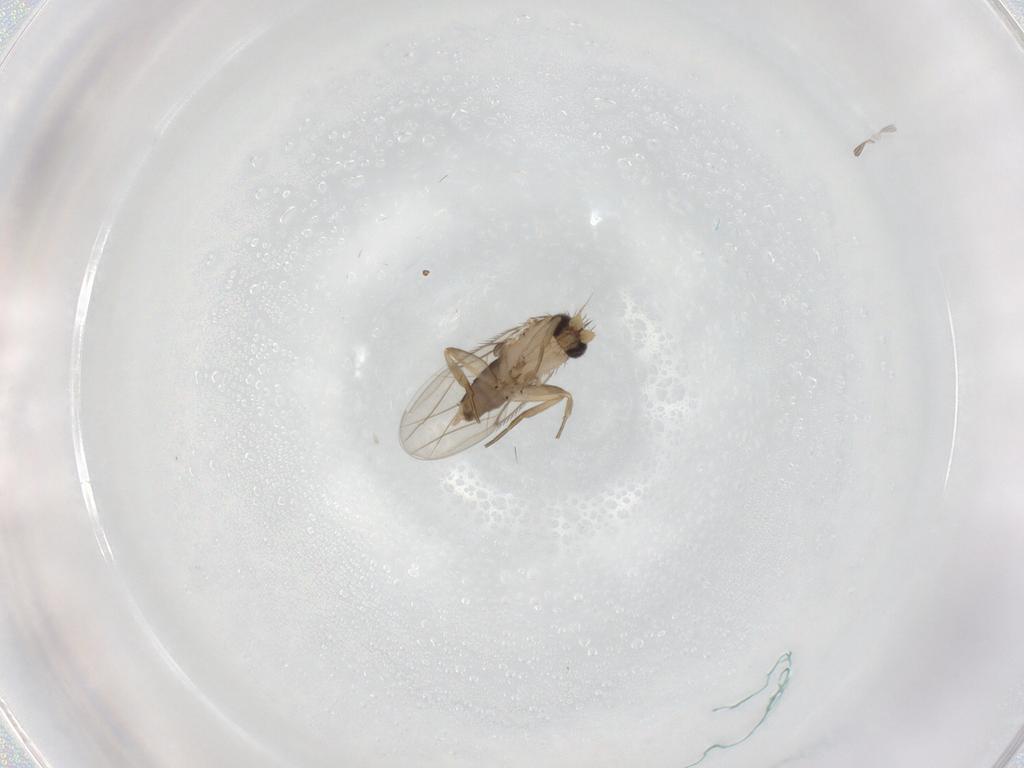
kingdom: Animalia
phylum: Arthropoda
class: Insecta
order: Diptera
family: Phoridae
